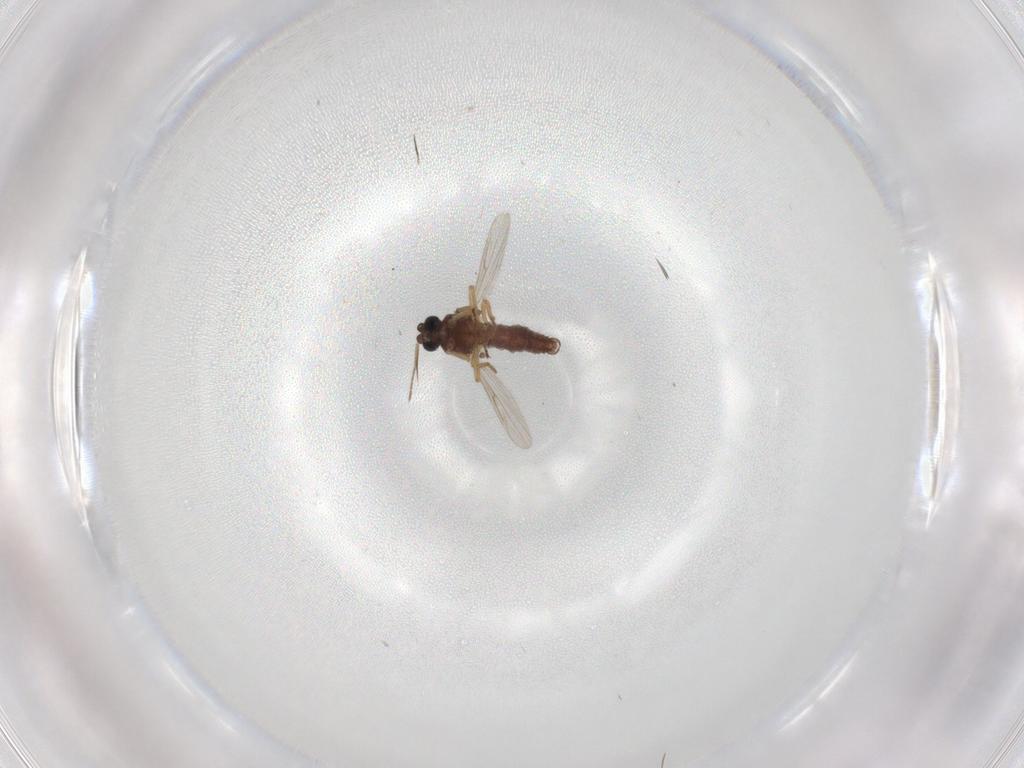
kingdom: Animalia
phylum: Arthropoda
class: Insecta
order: Diptera
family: Ceratopogonidae
